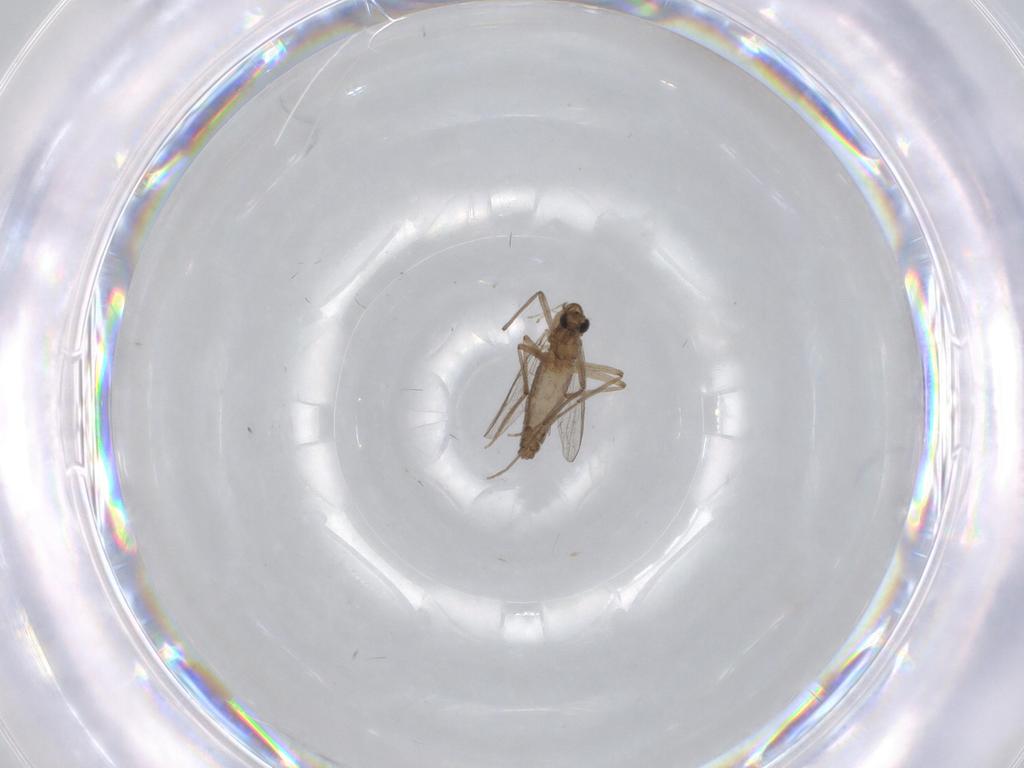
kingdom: Animalia
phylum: Arthropoda
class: Insecta
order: Diptera
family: Chironomidae
